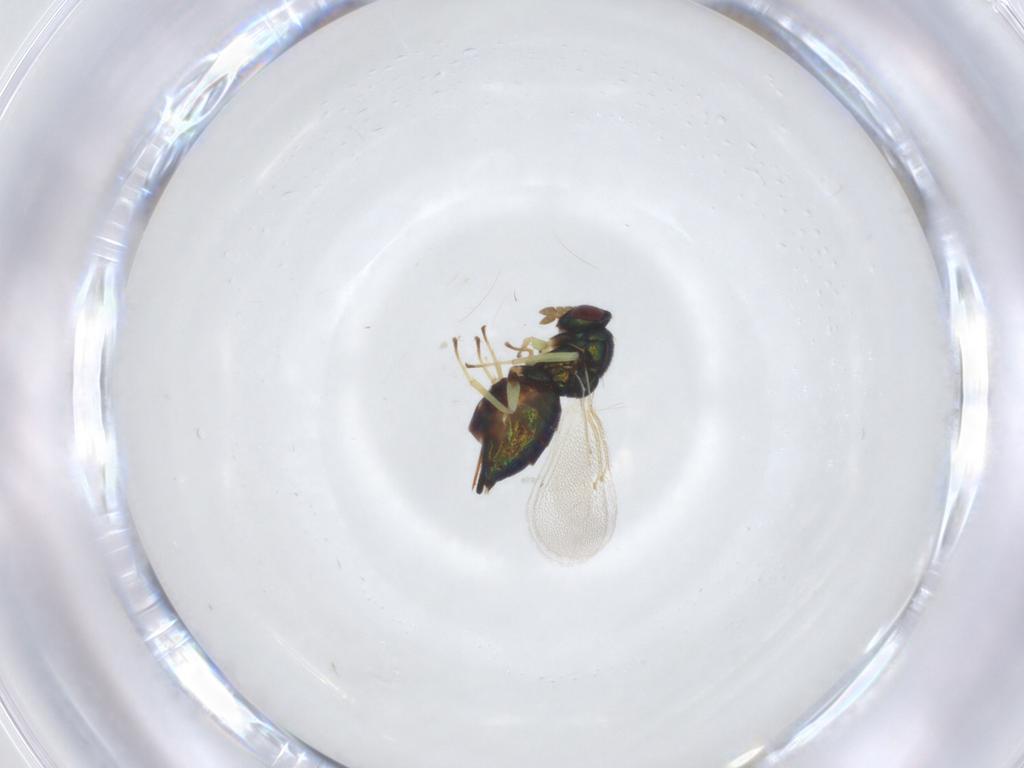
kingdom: Animalia
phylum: Arthropoda
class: Insecta
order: Hymenoptera
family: Eulophidae
